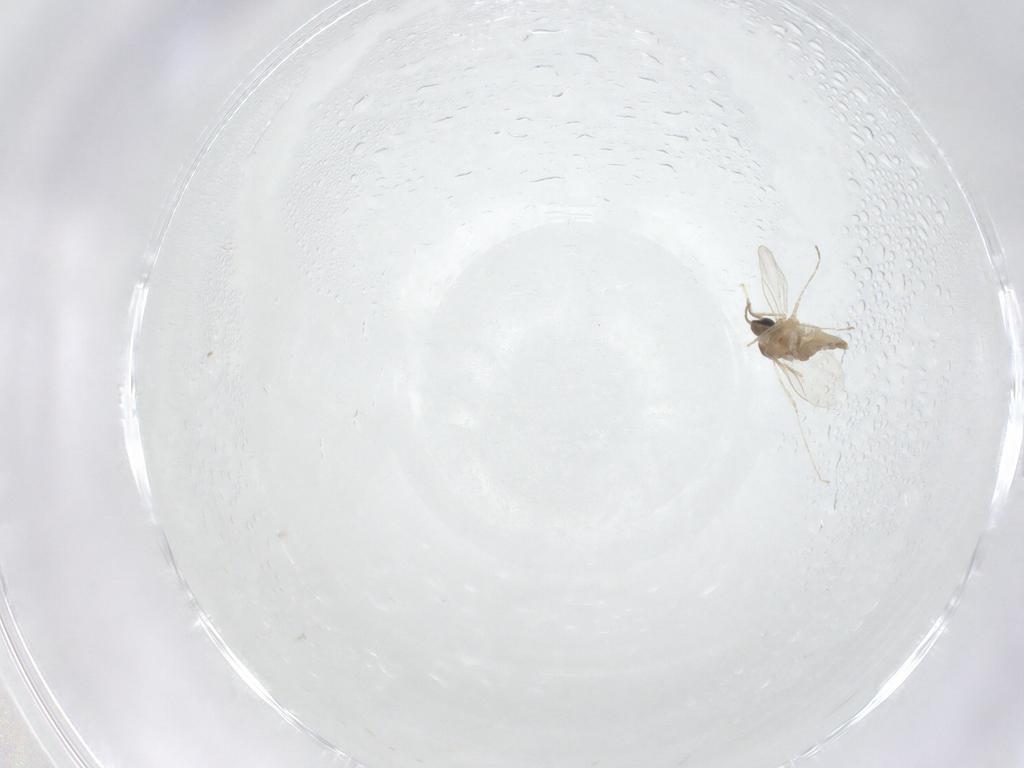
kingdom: Animalia
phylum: Arthropoda
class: Insecta
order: Diptera
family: Cecidomyiidae
